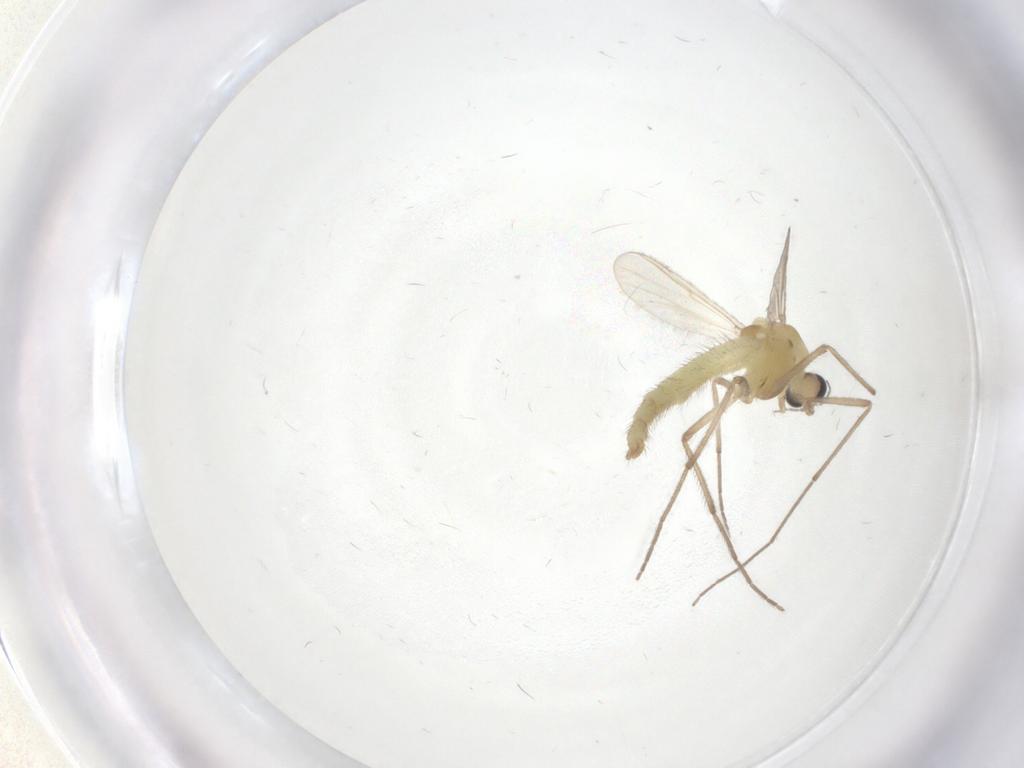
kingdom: Animalia
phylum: Arthropoda
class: Insecta
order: Diptera
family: Chironomidae
